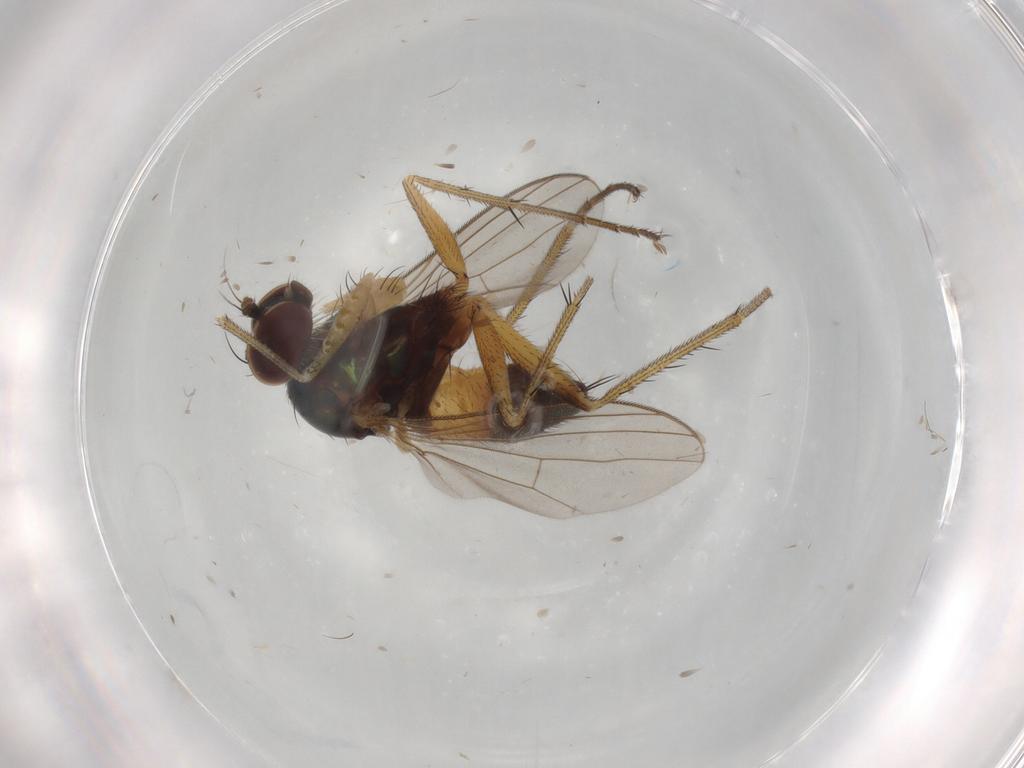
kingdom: Animalia
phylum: Arthropoda
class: Insecta
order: Diptera
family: Dolichopodidae
